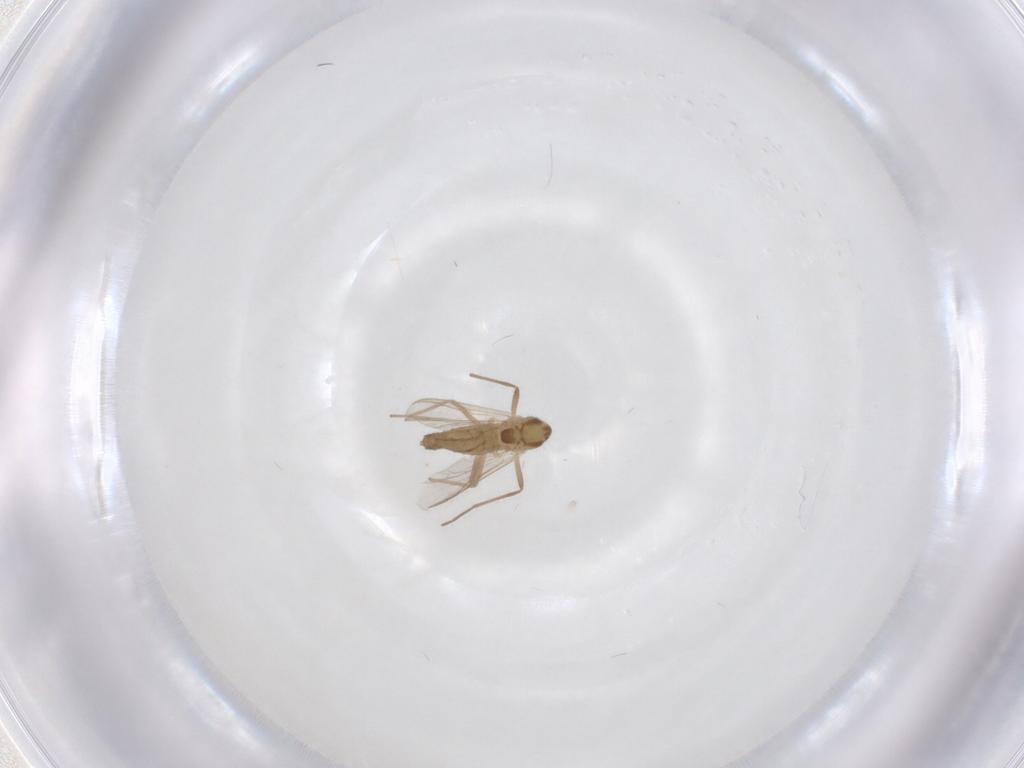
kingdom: Animalia
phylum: Arthropoda
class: Insecta
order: Diptera
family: Chironomidae
